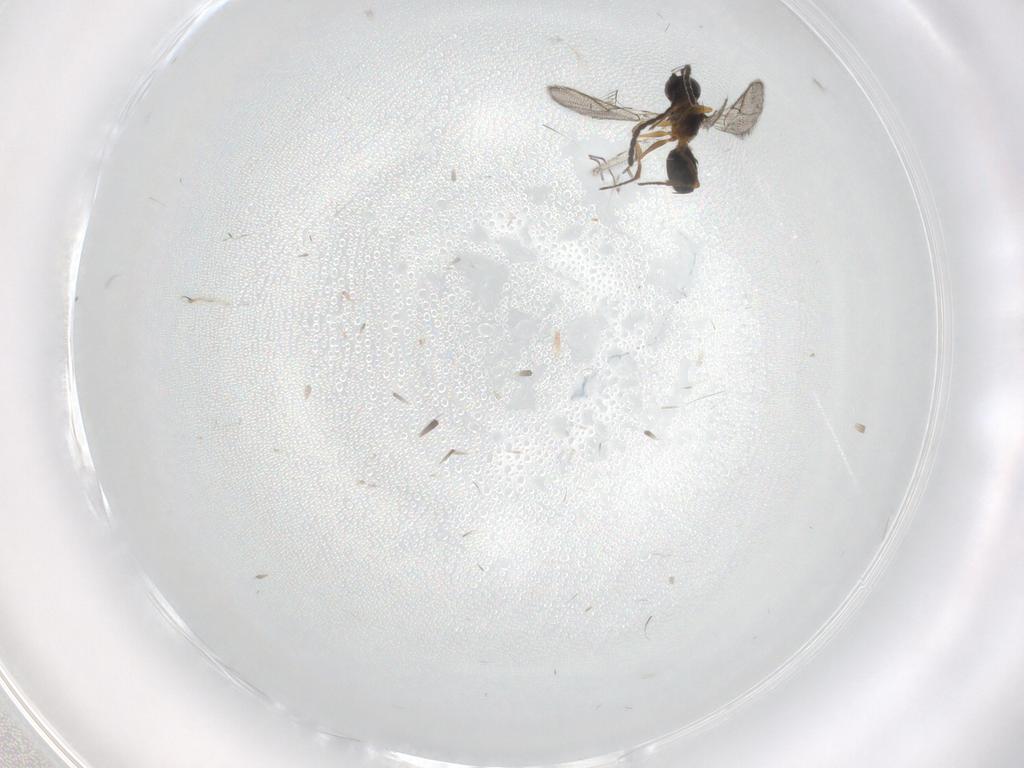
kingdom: Animalia
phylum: Arthropoda
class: Insecta
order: Hymenoptera
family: Figitidae
